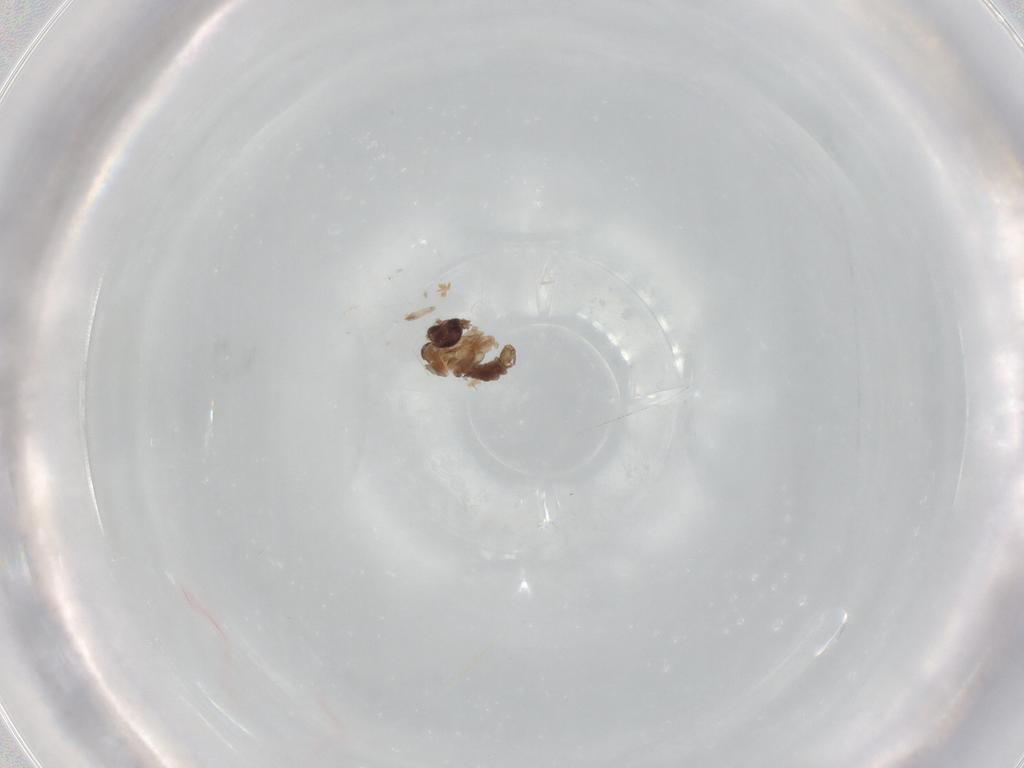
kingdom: Animalia
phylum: Arthropoda
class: Insecta
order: Diptera
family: Psychodidae
